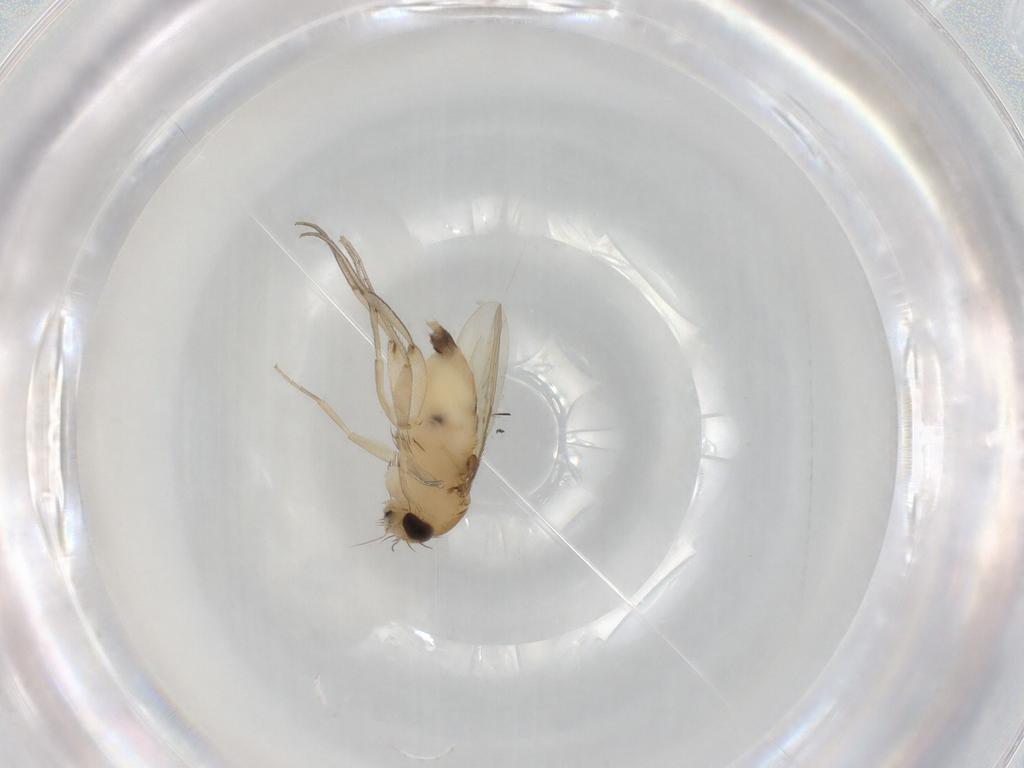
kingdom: Animalia
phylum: Arthropoda
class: Insecta
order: Diptera
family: Phoridae
